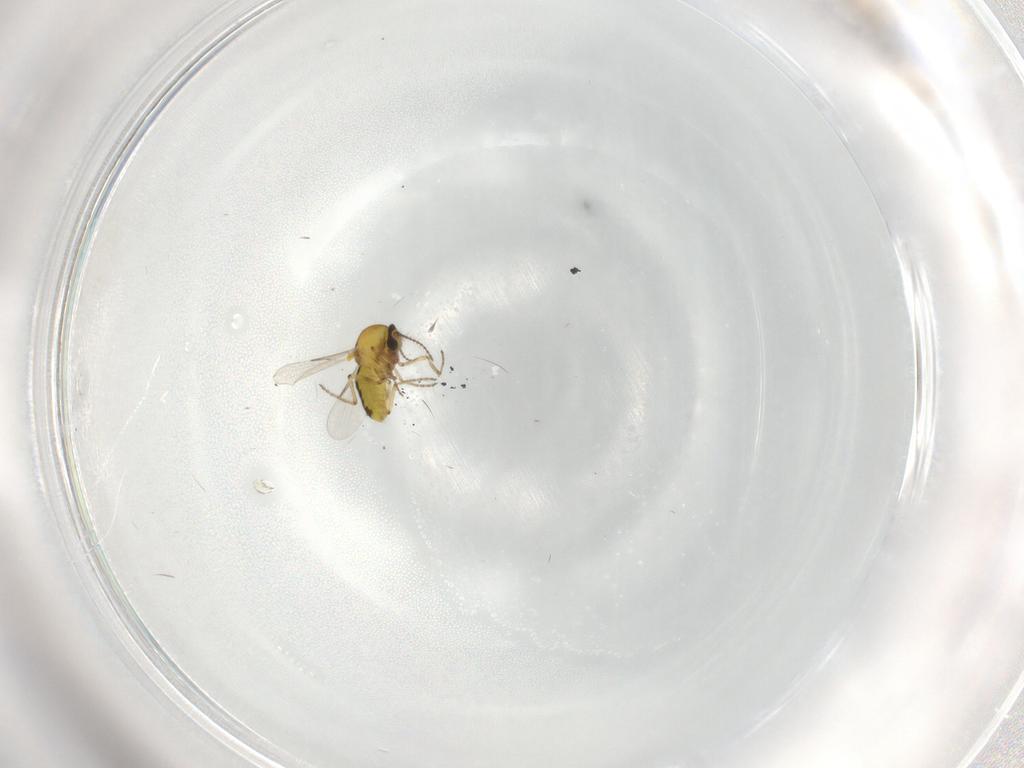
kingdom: Animalia
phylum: Arthropoda
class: Insecta
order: Diptera
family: Ceratopogonidae
